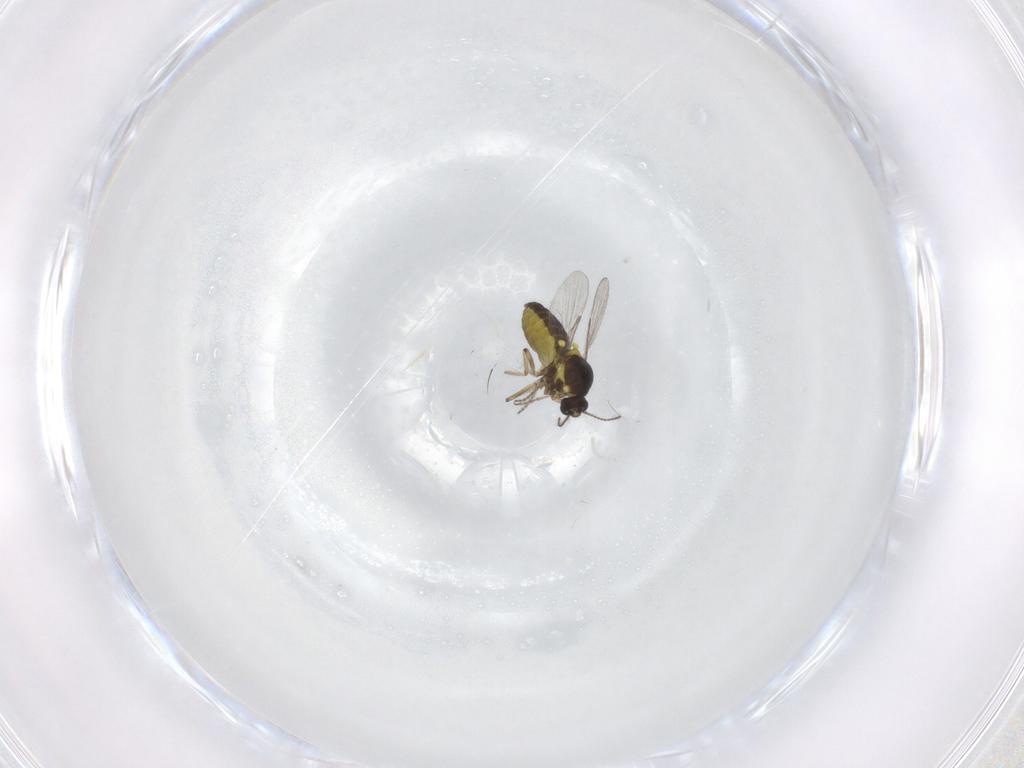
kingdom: Animalia
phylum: Arthropoda
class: Insecta
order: Diptera
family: Ceratopogonidae
